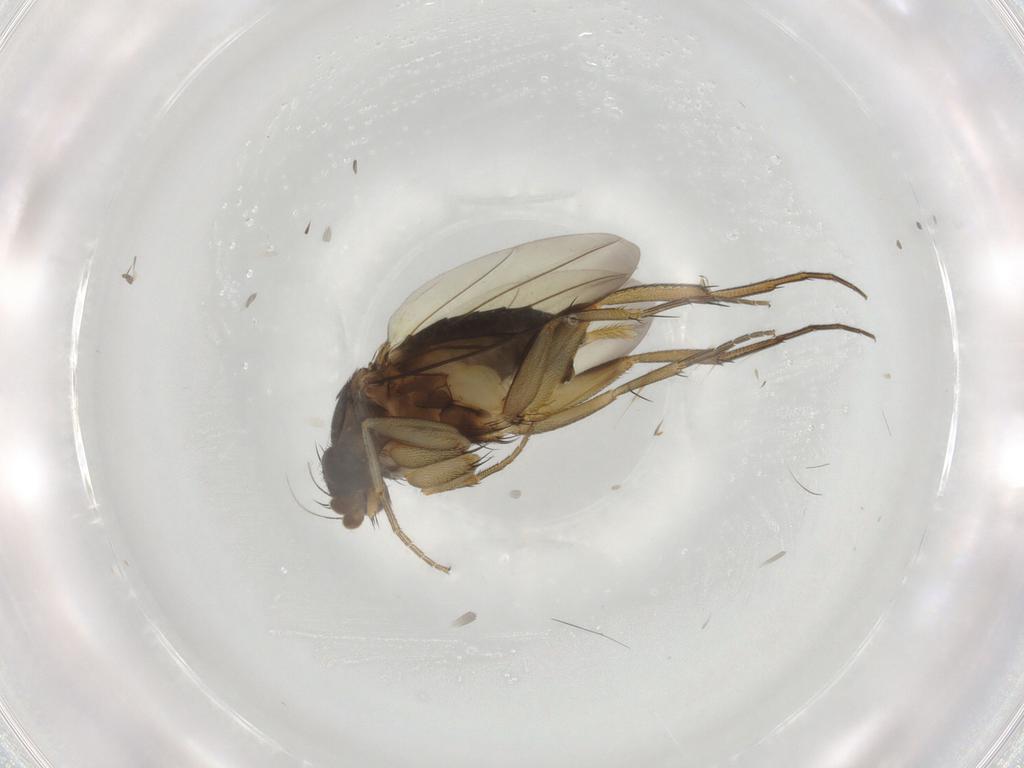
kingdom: Animalia
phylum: Arthropoda
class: Insecta
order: Diptera
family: Phoridae
